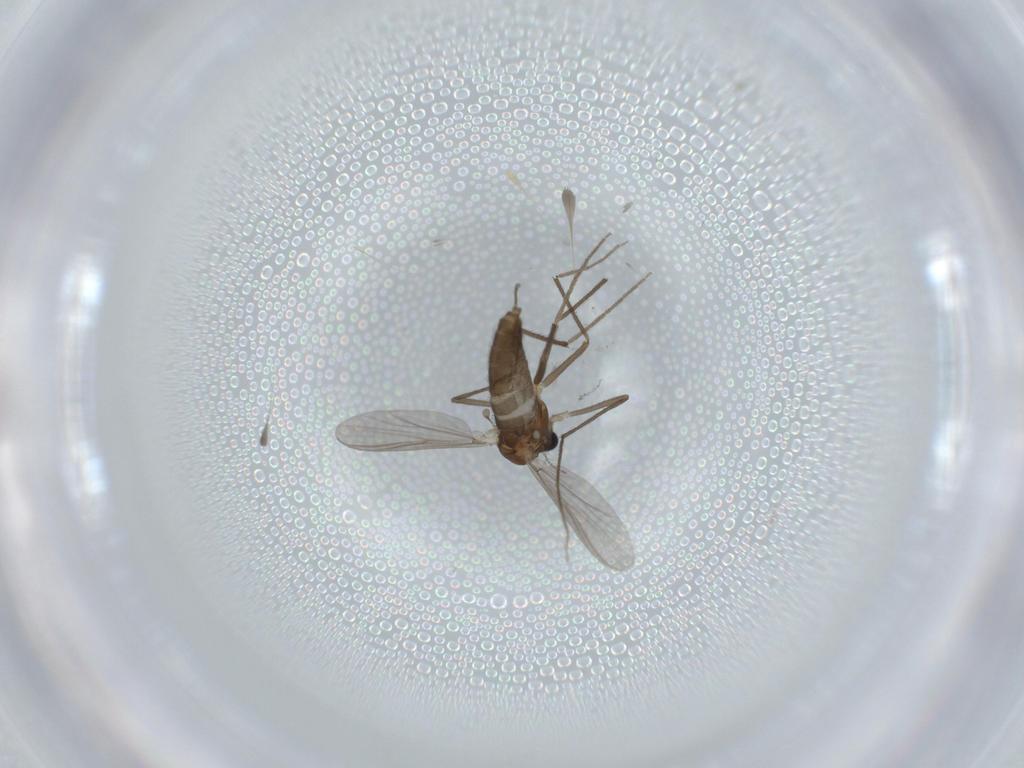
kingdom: Animalia
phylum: Arthropoda
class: Insecta
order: Diptera
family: Chironomidae
